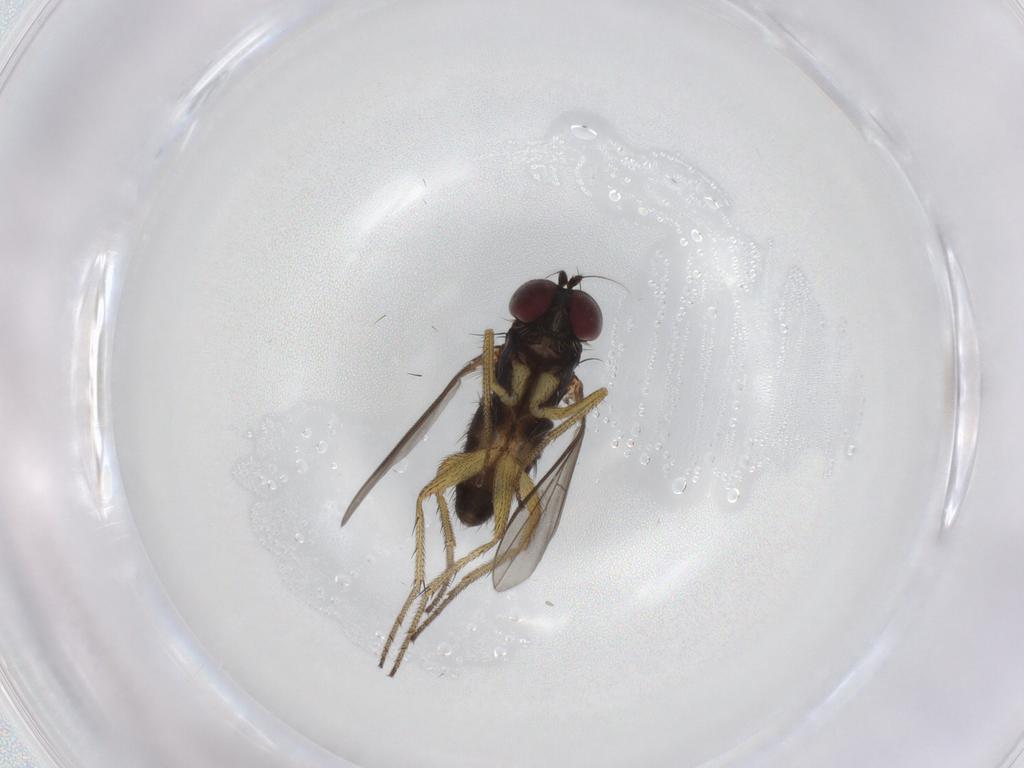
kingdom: Animalia
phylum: Arthropoda
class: Insecta
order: Diptera
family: Dolichopodidae
